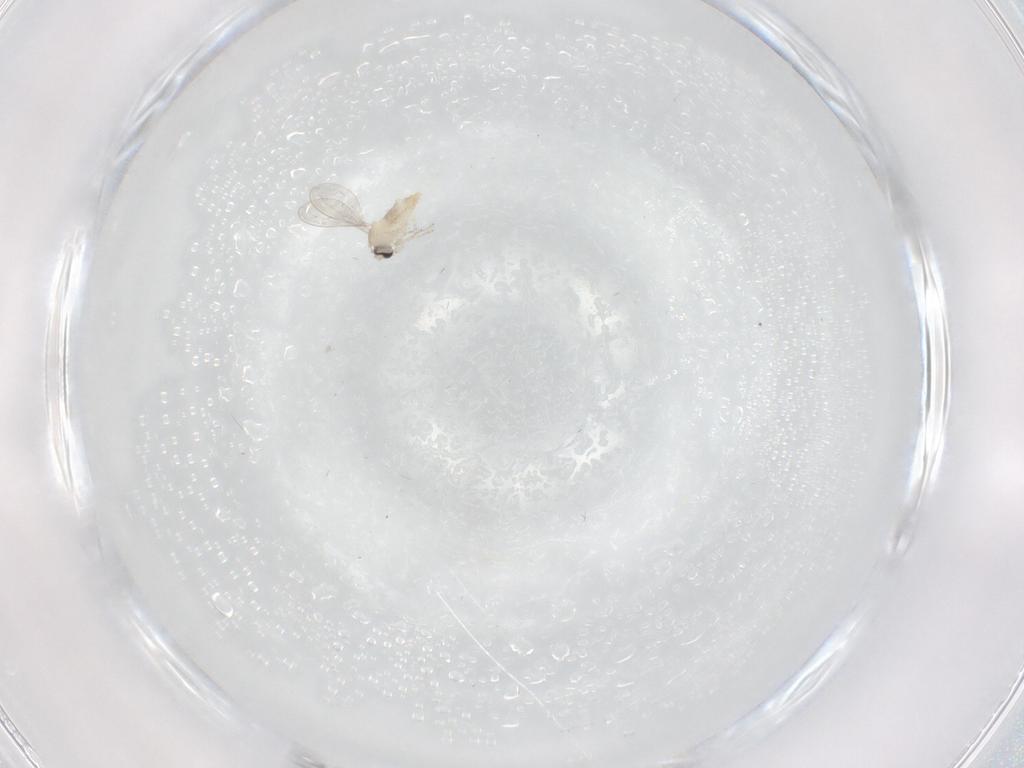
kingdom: Animalia
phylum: Arthropoda
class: Insecta
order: Diptera
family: Cecidomyiidae
